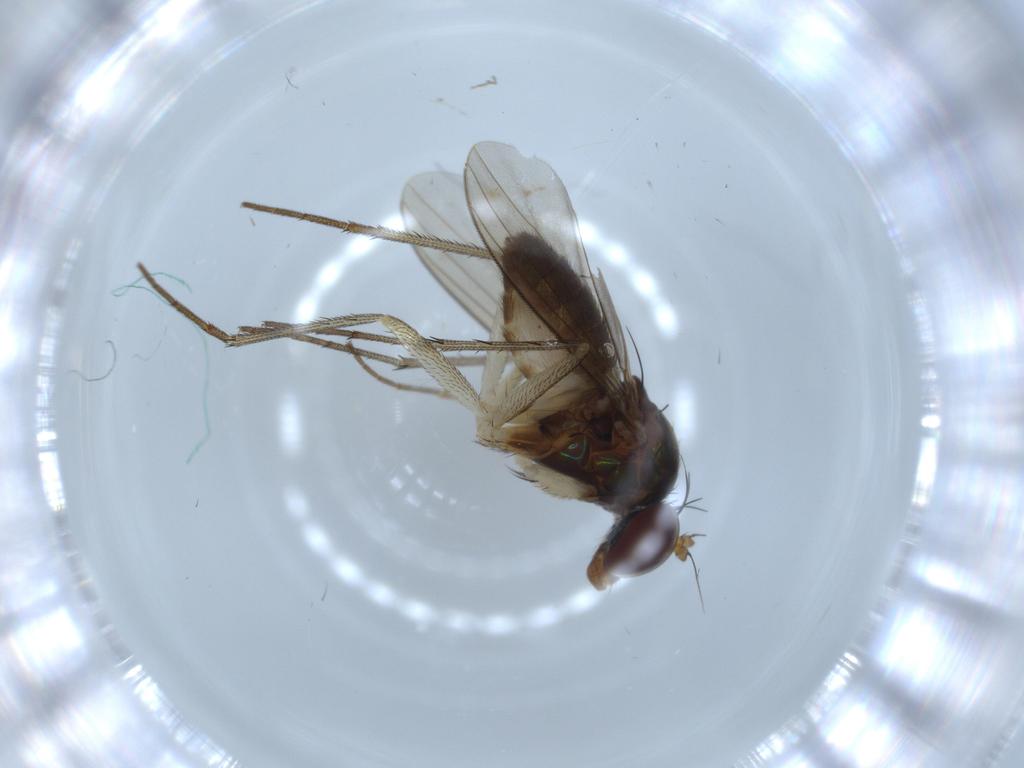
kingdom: Animalia
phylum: Arthropoda
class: Insecta
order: Diptera
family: Dolichopodidae
